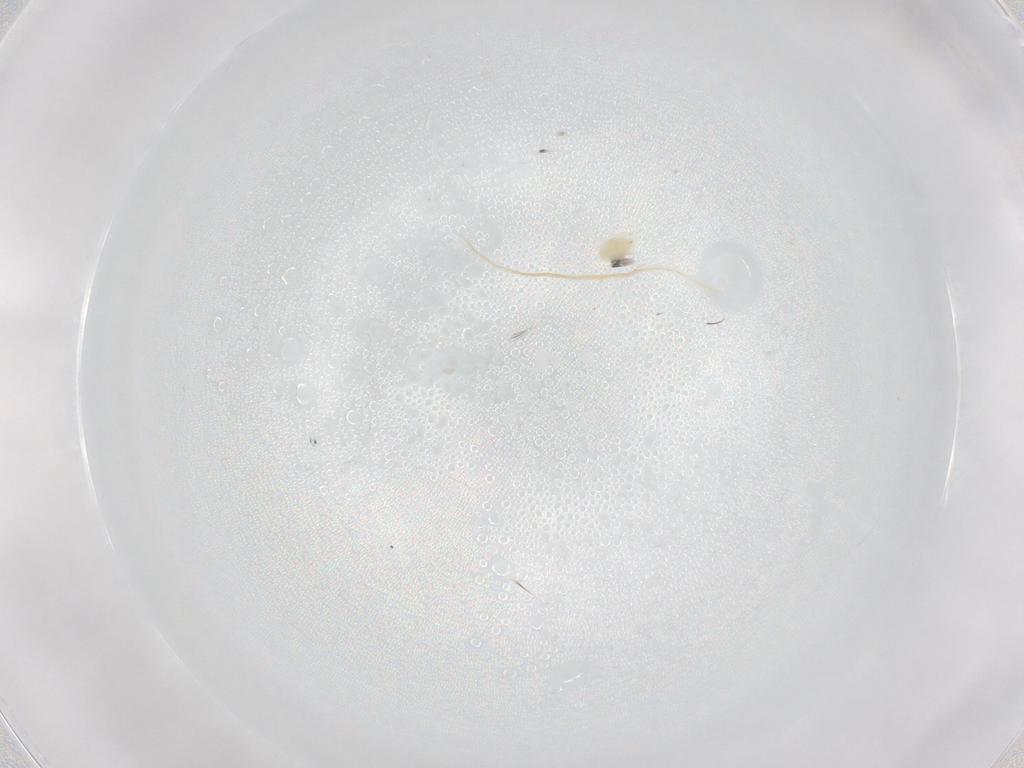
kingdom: Animalia
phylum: Arthropoda
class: Arachnida
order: Trombidiformes
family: Tetranychidae
